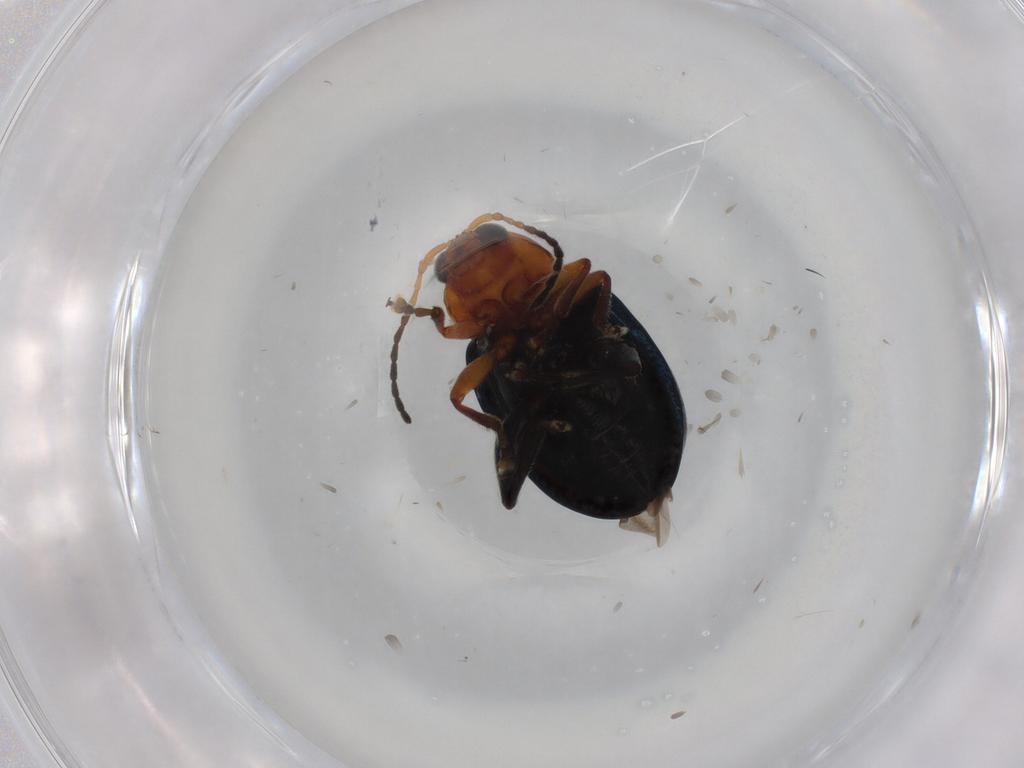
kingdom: Animalia
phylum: Arthropoda
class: Insecta
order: Coleoptera
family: Chrysomelidae
